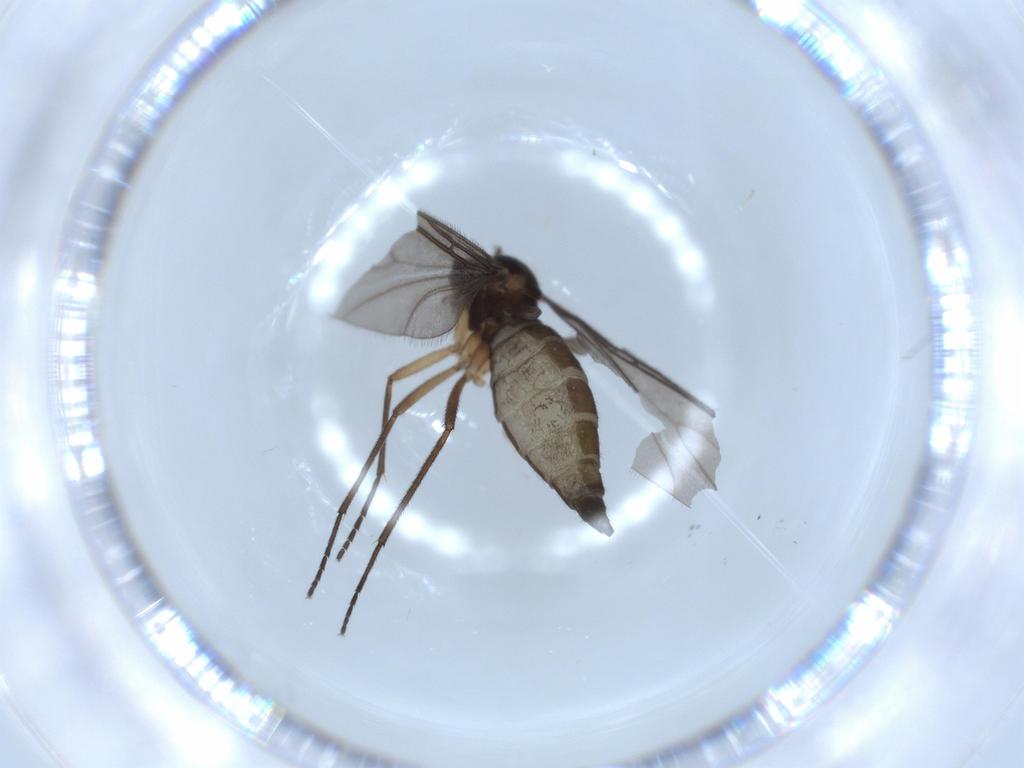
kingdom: Animalia
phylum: Arthropoda
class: Insecta
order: Diptera
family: Sciaridae
